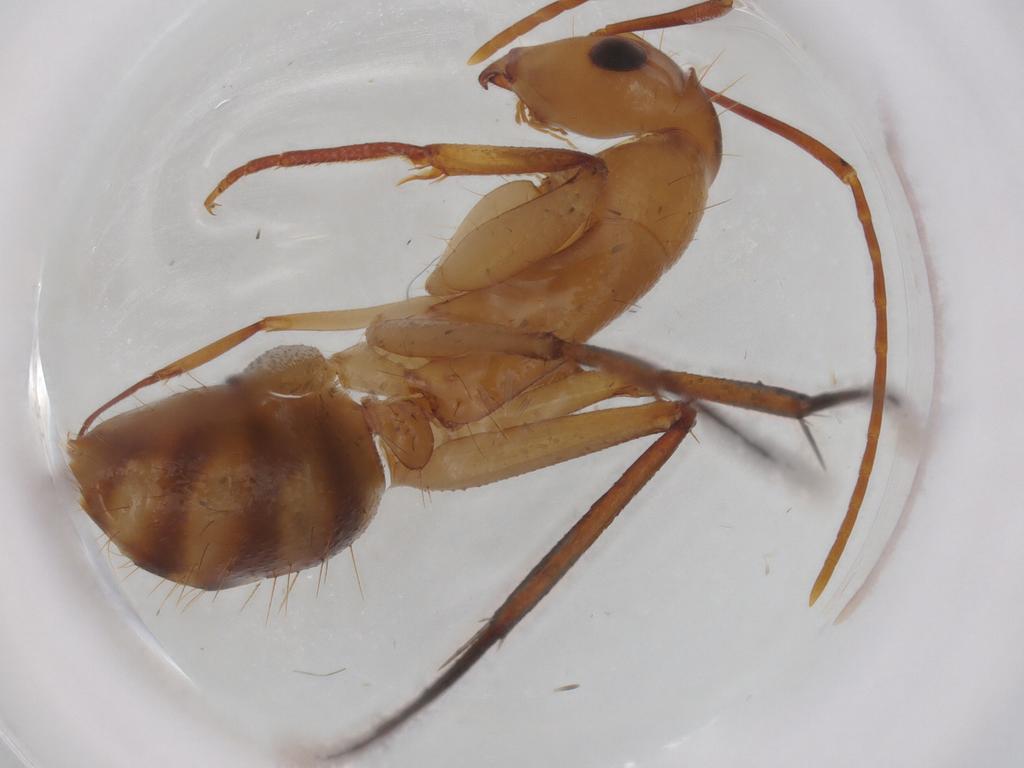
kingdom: Animalia
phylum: Arthropoda
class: Insecta
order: Hymenoptera
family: Formicidae
